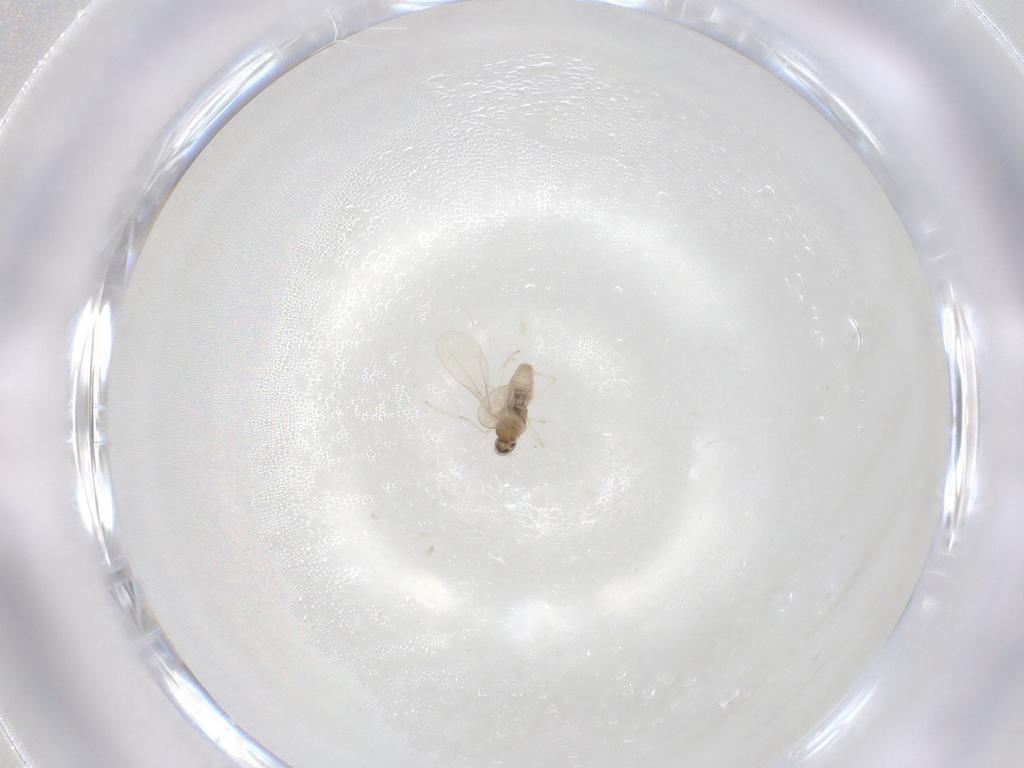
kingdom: Animalia
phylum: Arthropoda
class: Insecta
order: Diptera
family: Cecidomyiidae
